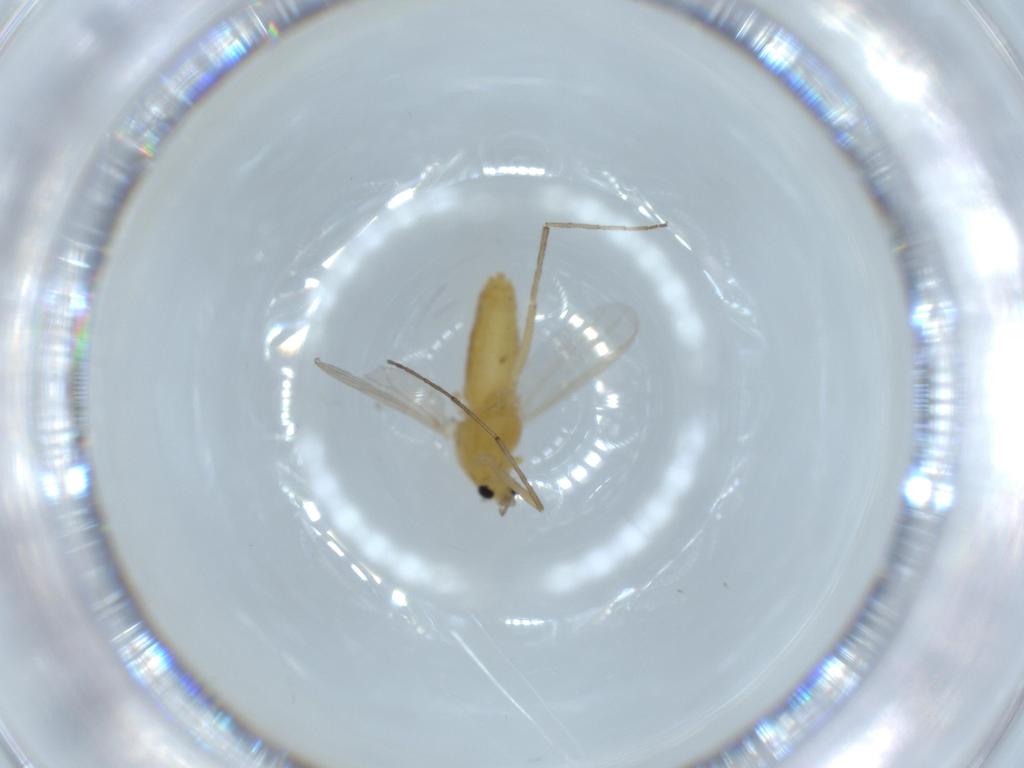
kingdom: Animalia
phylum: Arthropoda
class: Insecta
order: Diptera
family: Chironomidae
